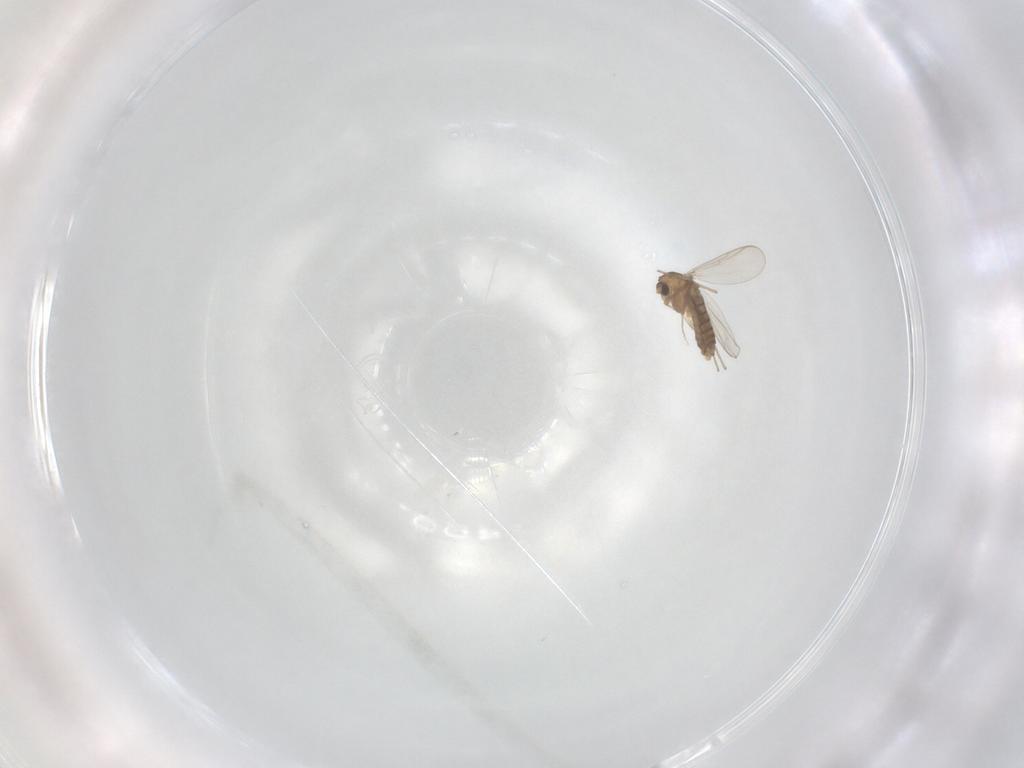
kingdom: Animalia
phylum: Arthropoda
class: Insecta
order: Diptera
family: Chironomidae
